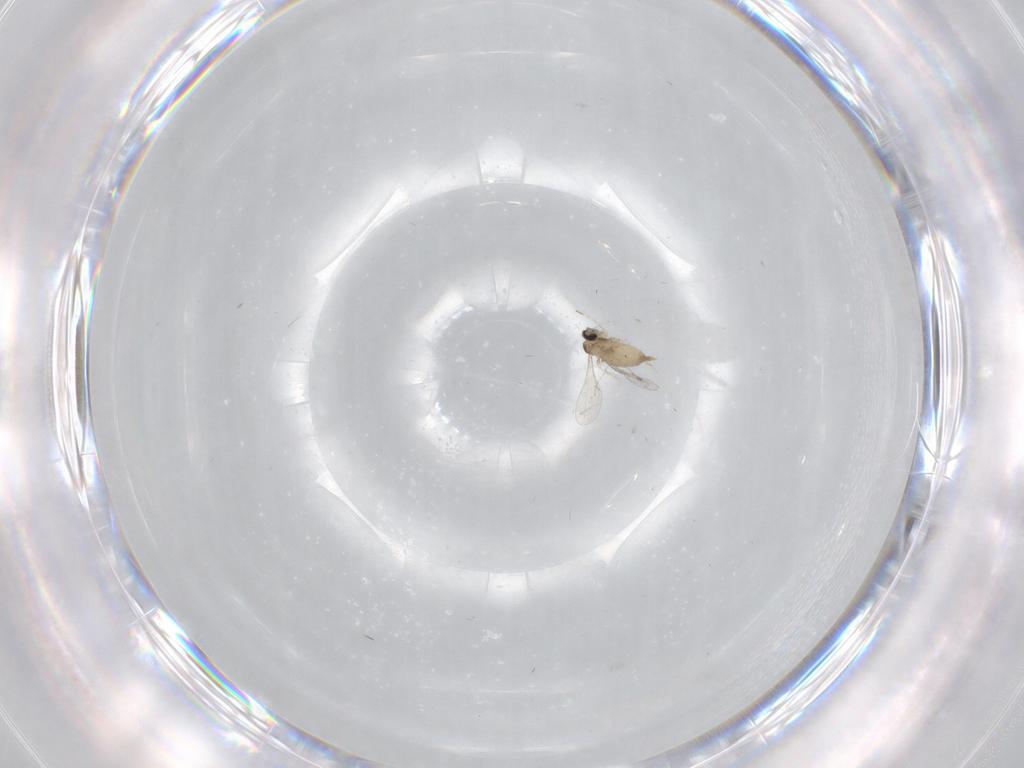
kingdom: Animalia
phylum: Arthropoda
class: Insecta
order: Diptera
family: Chironomidae
